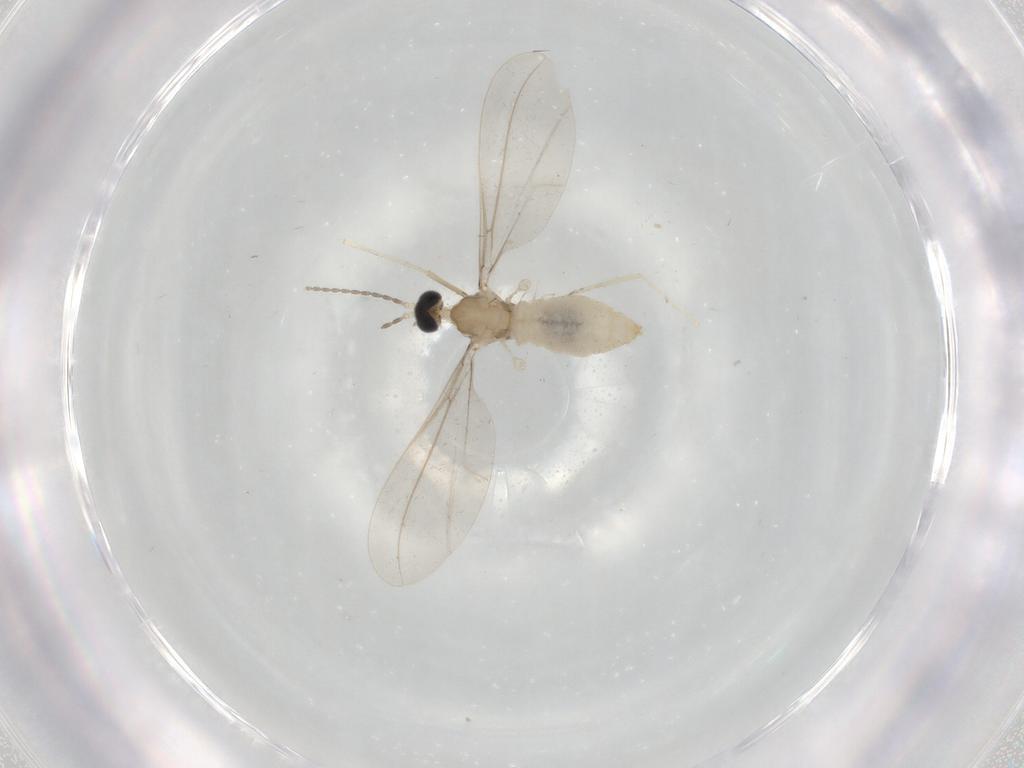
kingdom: Animalia
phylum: Arthropoda
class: Insecta
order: Diptera
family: Cecidomyiidae
